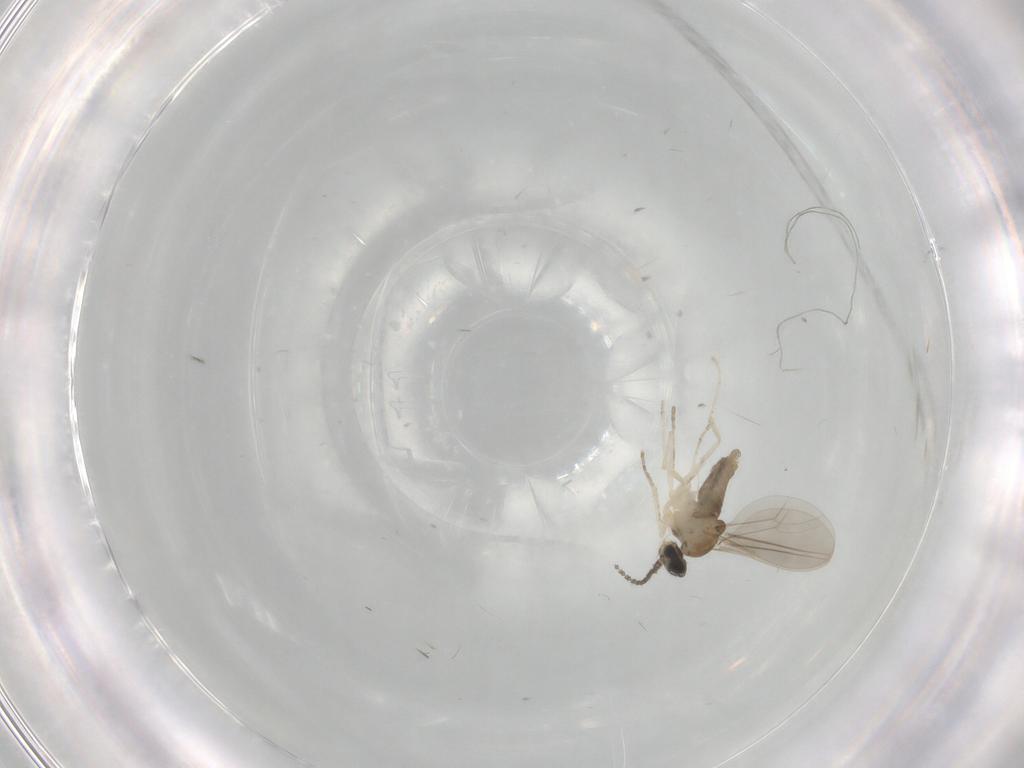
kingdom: Animalia
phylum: Arthropoda
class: Insecta
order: Diptera
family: Cecidomyiidae
